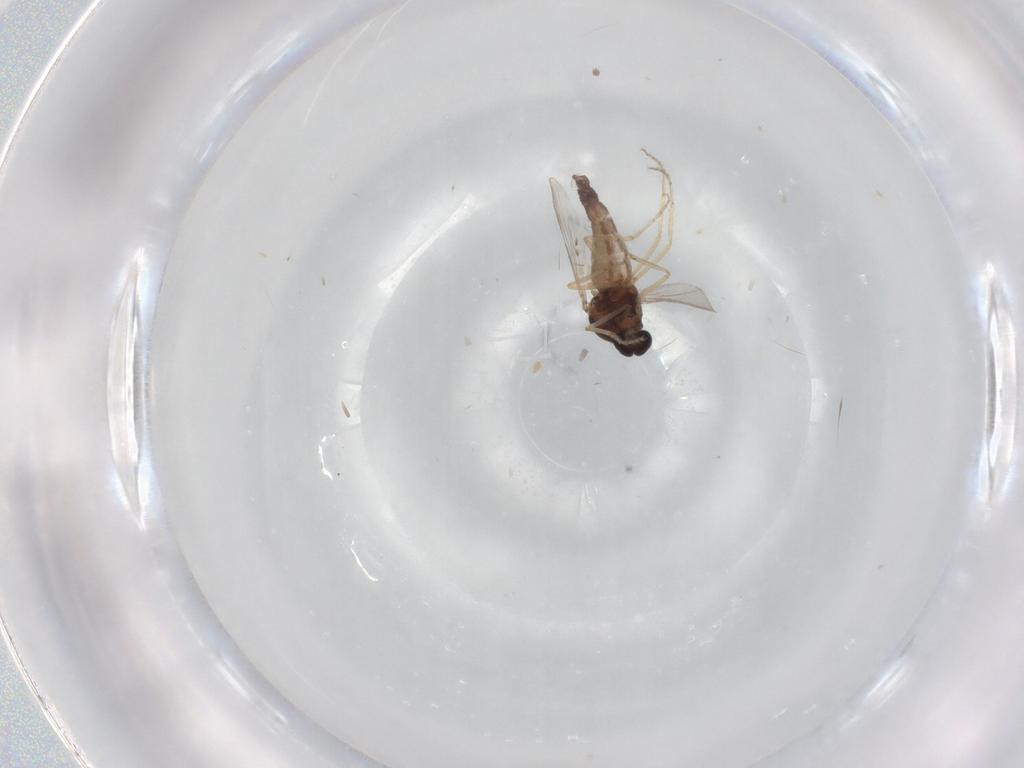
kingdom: Animalia
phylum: Arthropoda
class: Insecta
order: Diptera
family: Ceratopogonidae
